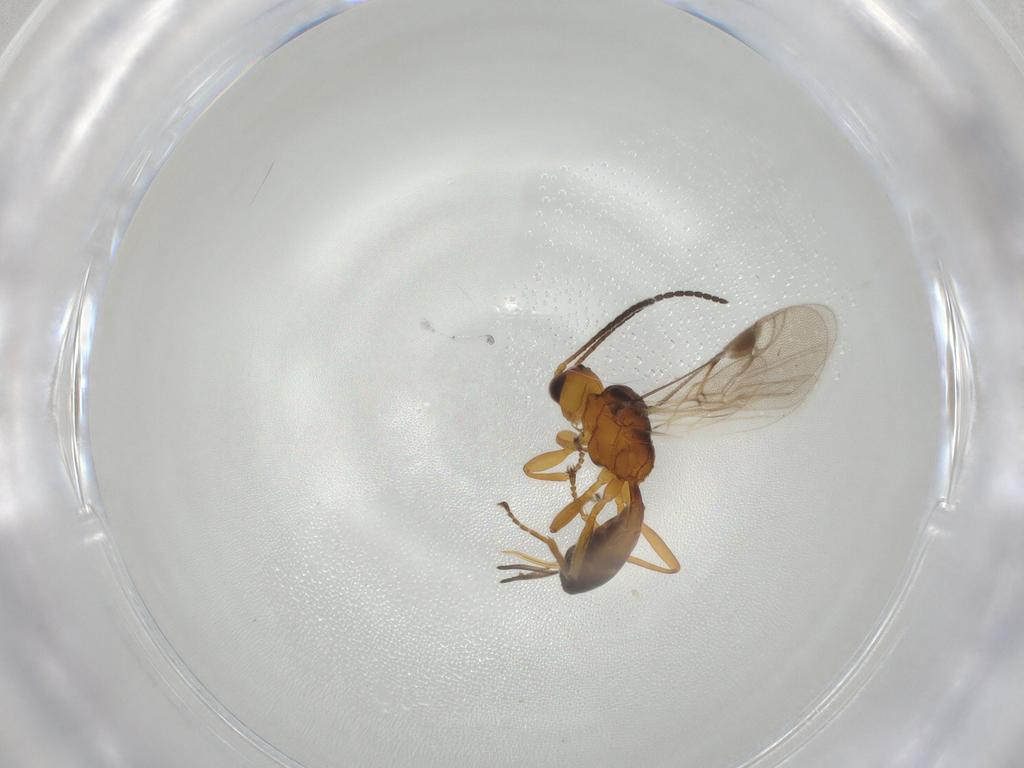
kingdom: Animalia
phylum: Arthropoda
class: Insecta
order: Hymenoptera
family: Braconidae
